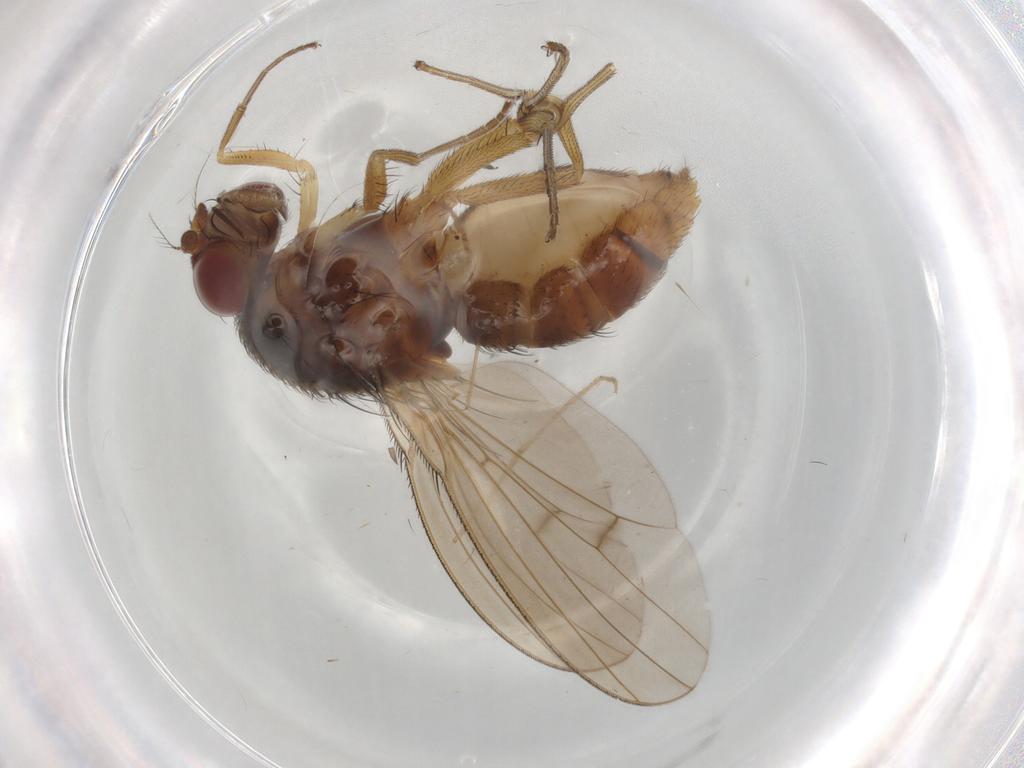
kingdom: Animalia
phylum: Arthropoda
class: Insecta
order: Diptera
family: Curtonotidae
